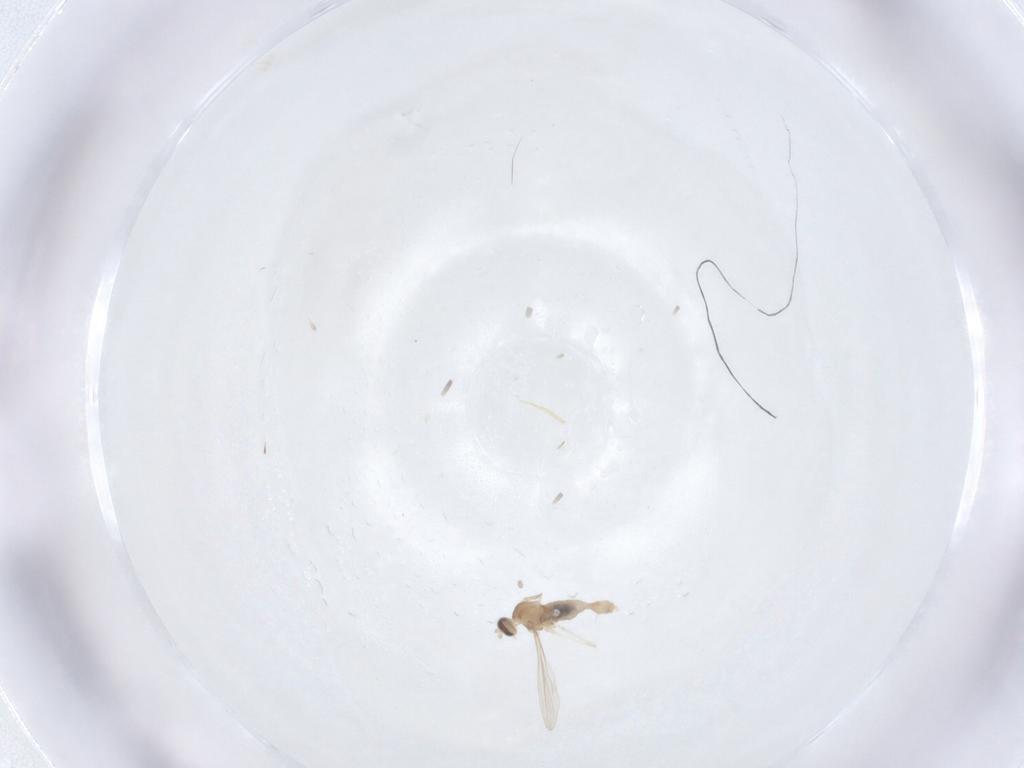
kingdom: Animalia
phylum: Arthropoda
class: Insecta
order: Diptera
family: Cecidomyiidae
